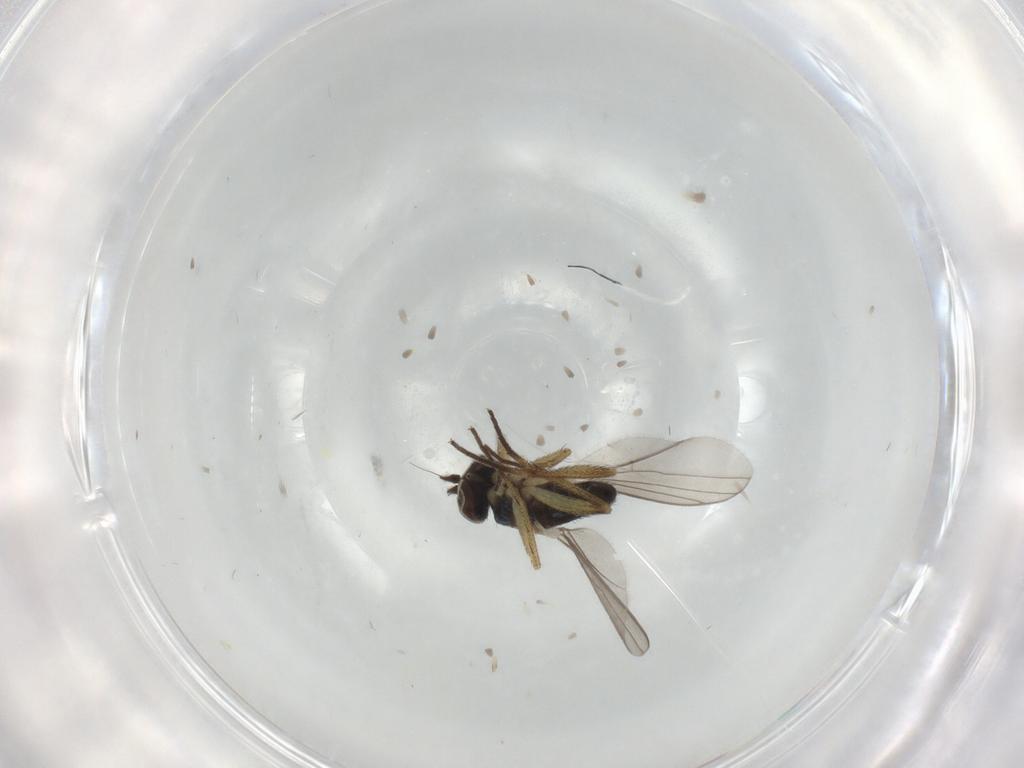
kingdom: Animalia
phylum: Arthropoda
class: Insecta
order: Diptera
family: Dolichopodidae
